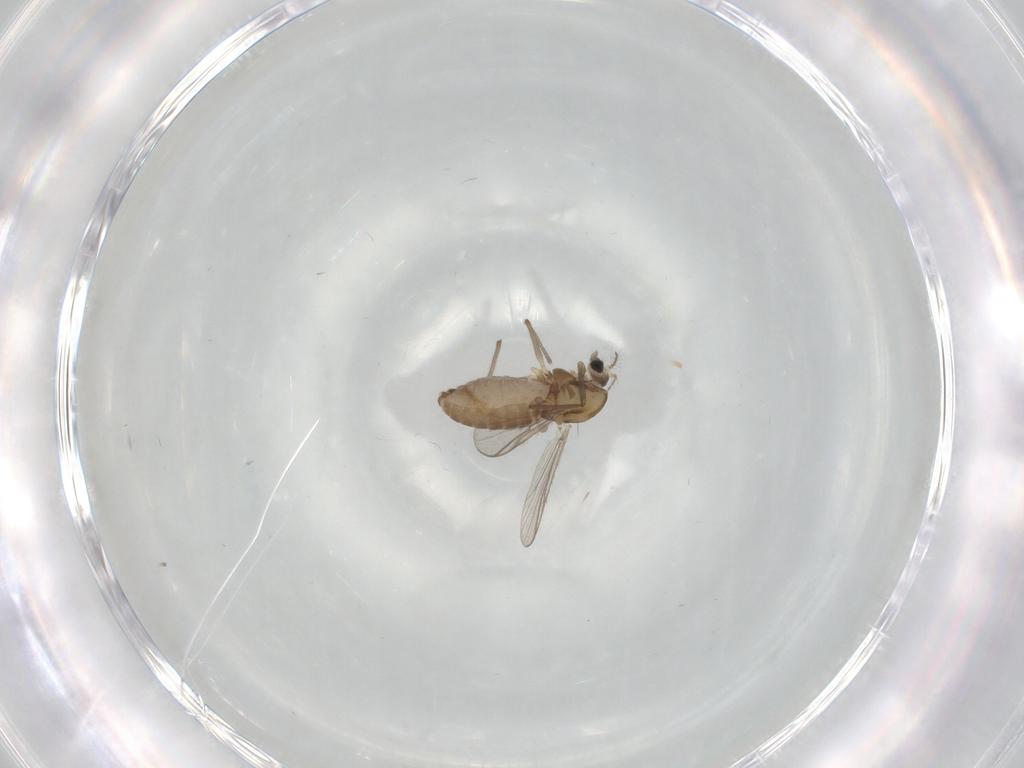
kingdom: Animalia
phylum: Arthropoda
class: Insecta
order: Diptera
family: Chironomidae
